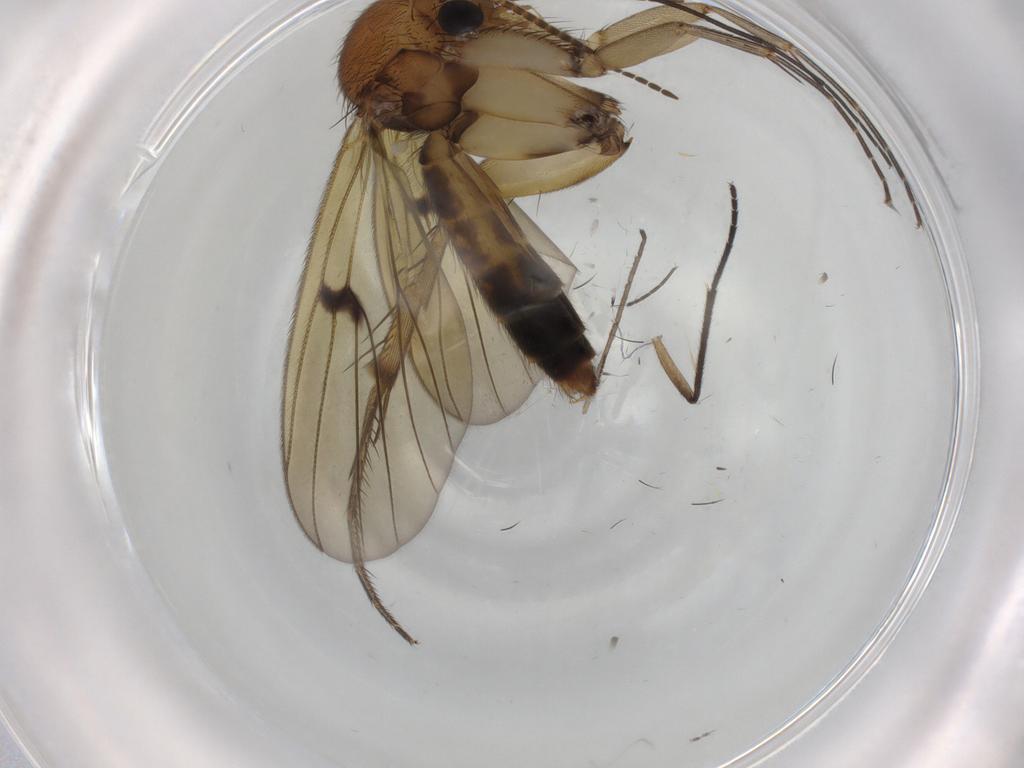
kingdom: Animalia
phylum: Arthropoda
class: Insecta
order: Diptera
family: Mycetophilidae
